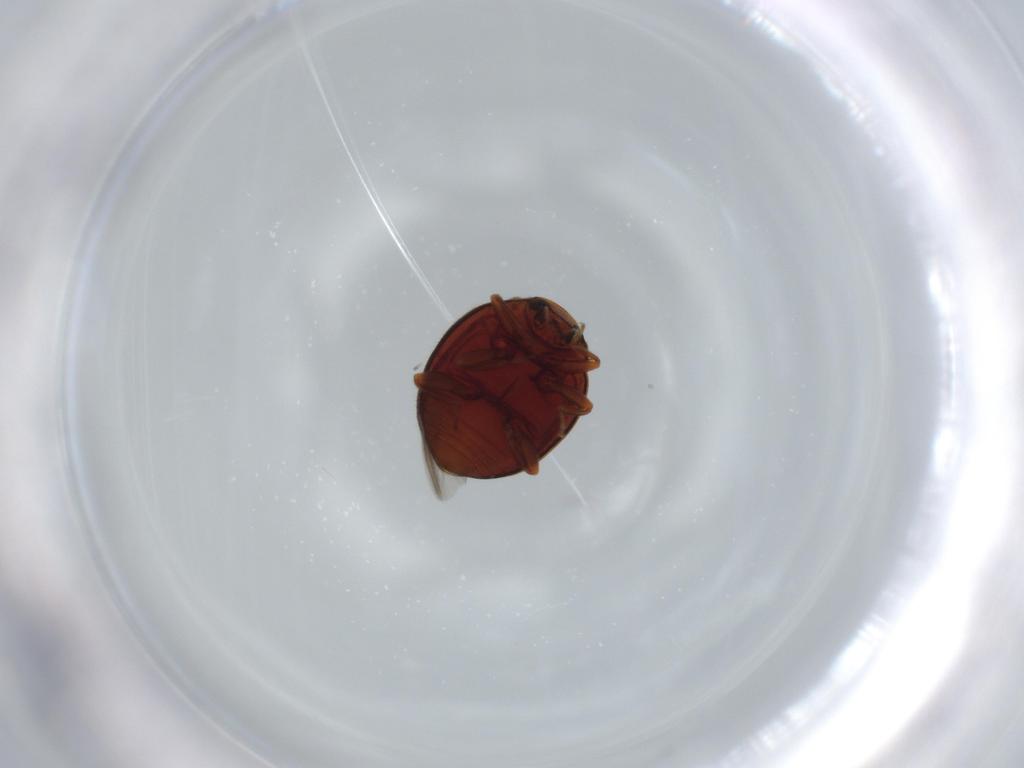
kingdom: Animalia
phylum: Arthropoda
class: Insecta
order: Coleoptera
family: Coccinellidae
